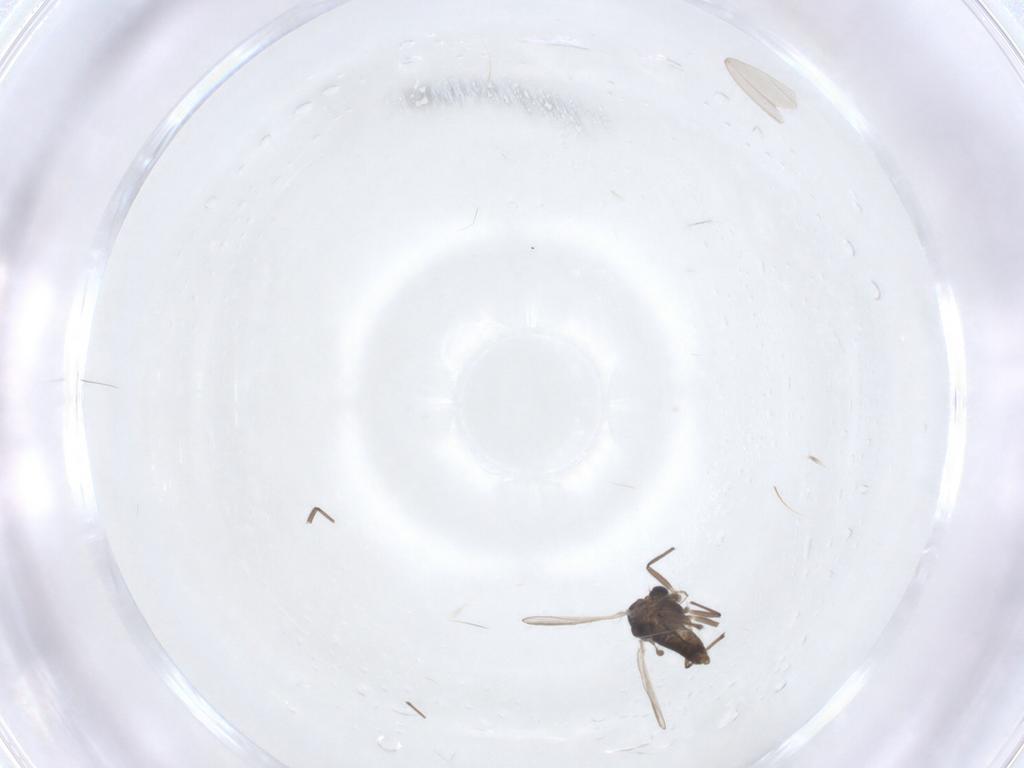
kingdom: Animalia
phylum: Arthropoda
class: Insecta
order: Diptera
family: Chironomidae
